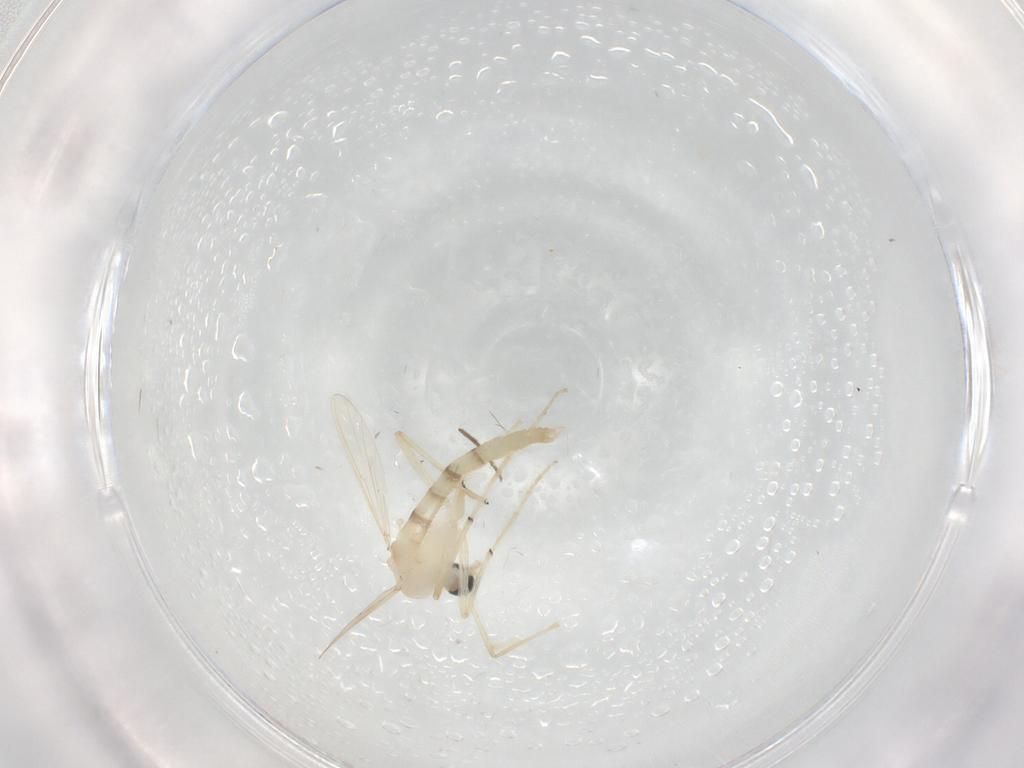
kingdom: Animalia
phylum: Arthropoda
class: Insecta
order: Diptera
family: Chironomidae
